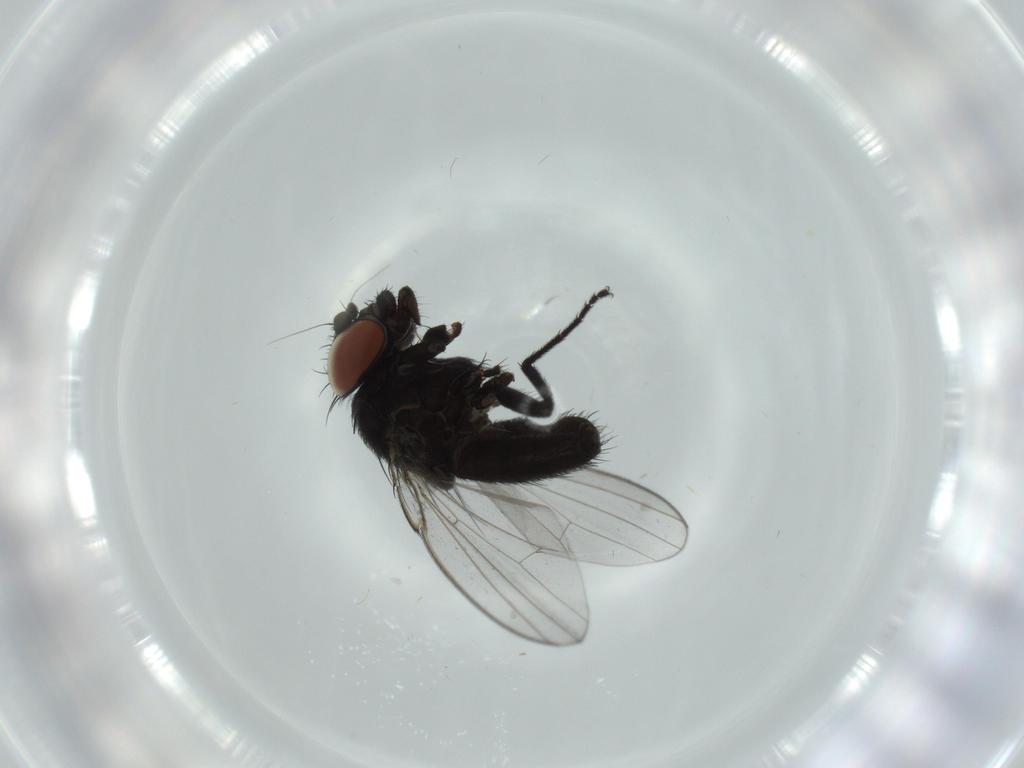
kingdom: Animalia
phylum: Arthropoda
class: Insecta
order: Diptera
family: Milichiidae
